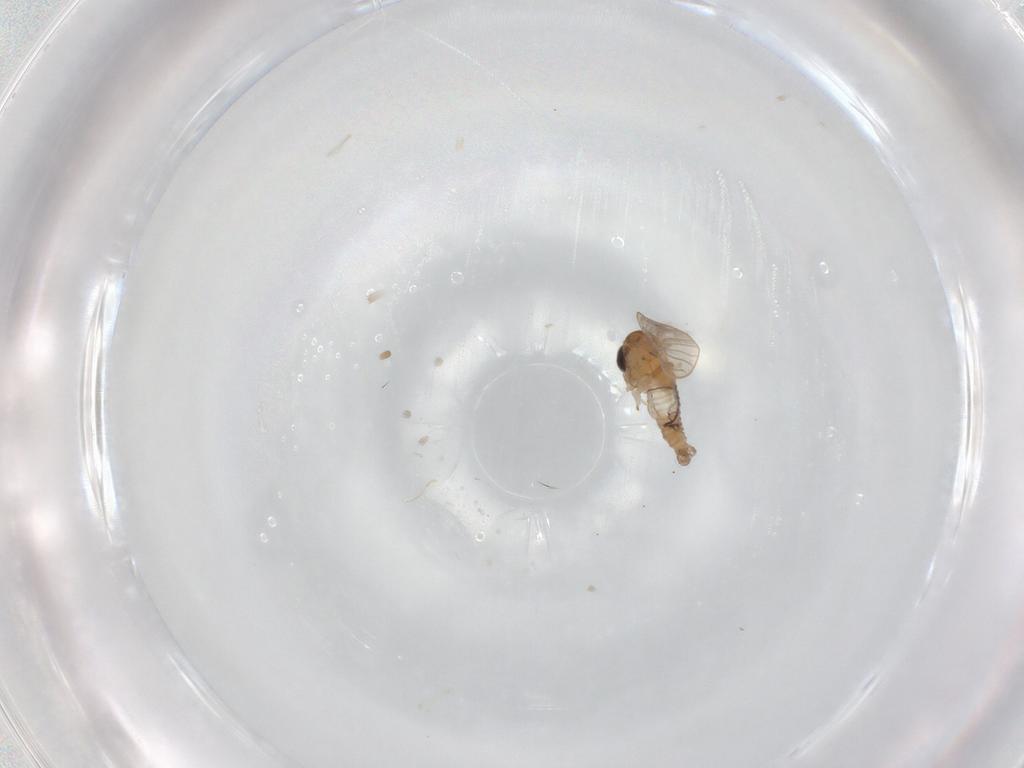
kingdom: Animalia
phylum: Arthropoda
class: Insecta
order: Diptera
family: Psychodidae
